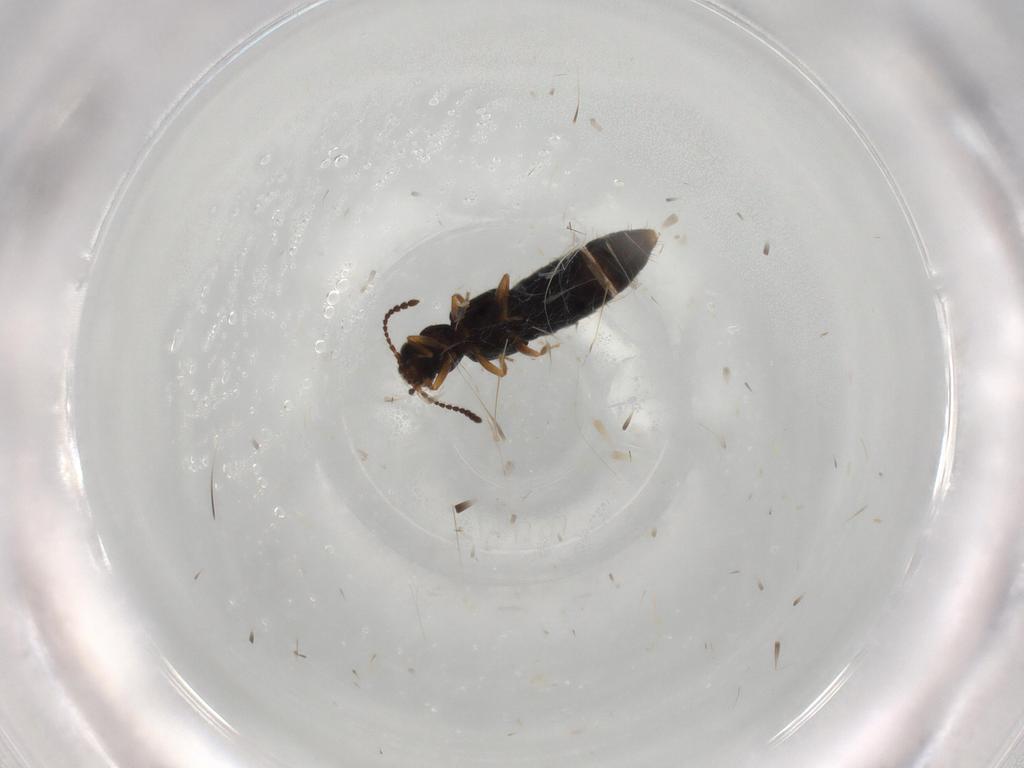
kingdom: Animalia
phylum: Arthropoda
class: Insecta
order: Coleoptera
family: Staphylinidae
